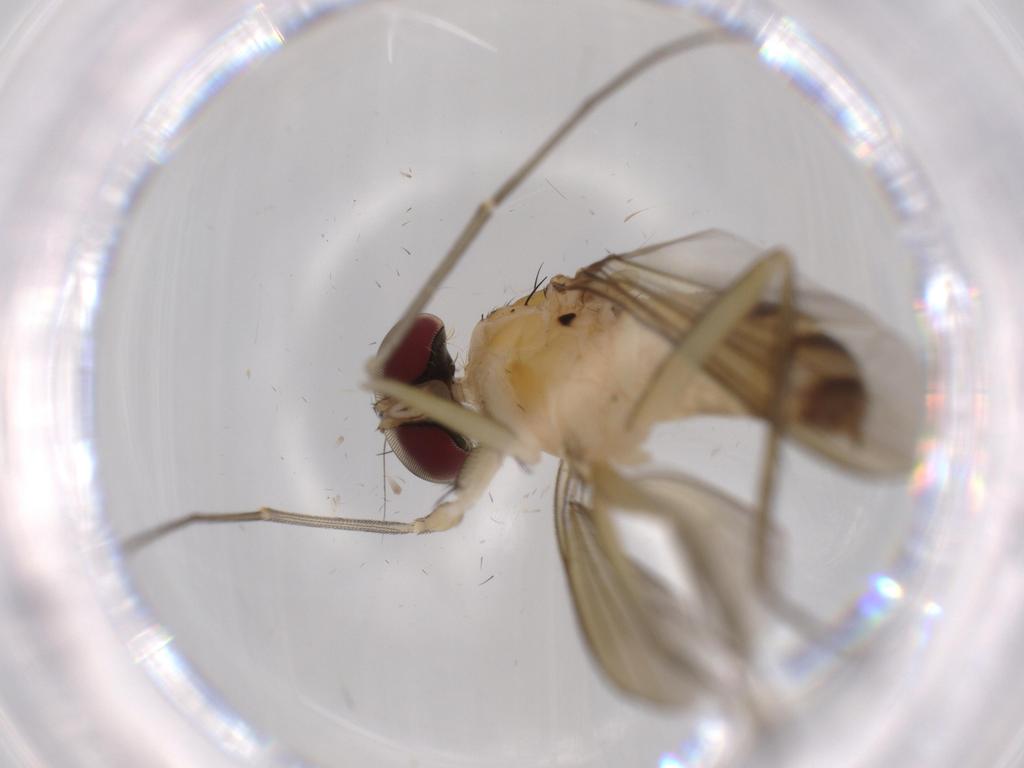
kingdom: Animalia
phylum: Arthropoda
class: Insecta
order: Diptera
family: Dolichopodidae
